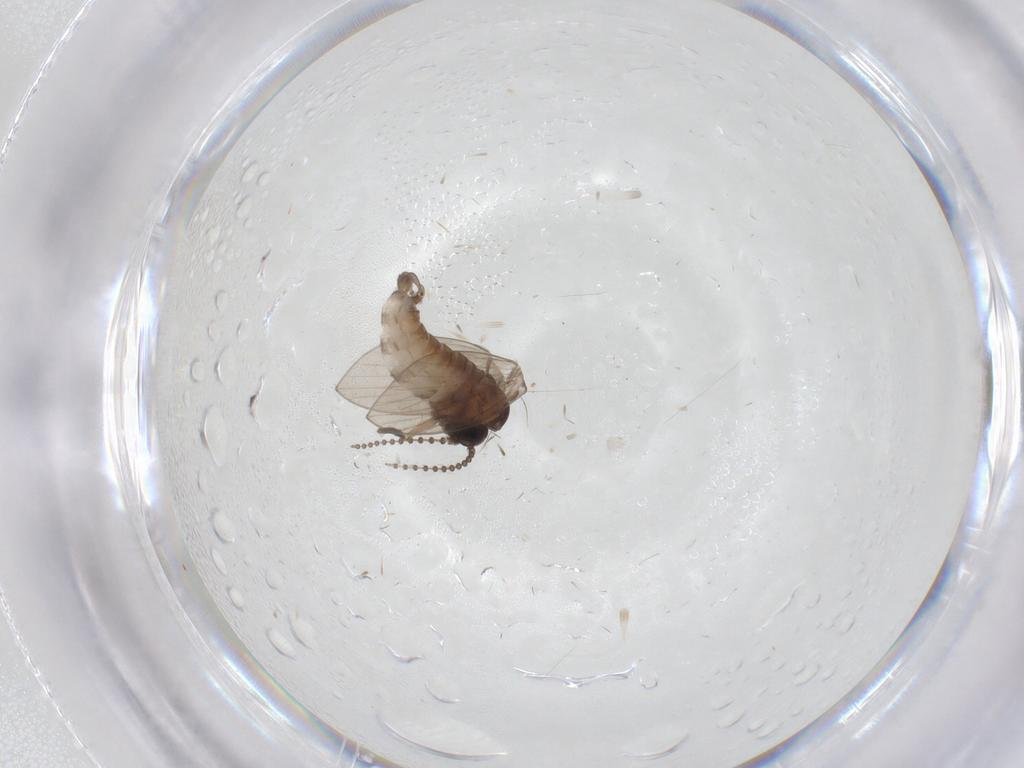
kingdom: Animalia
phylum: Arthropoda
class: Insecta
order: Diptera
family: Psychodidae
